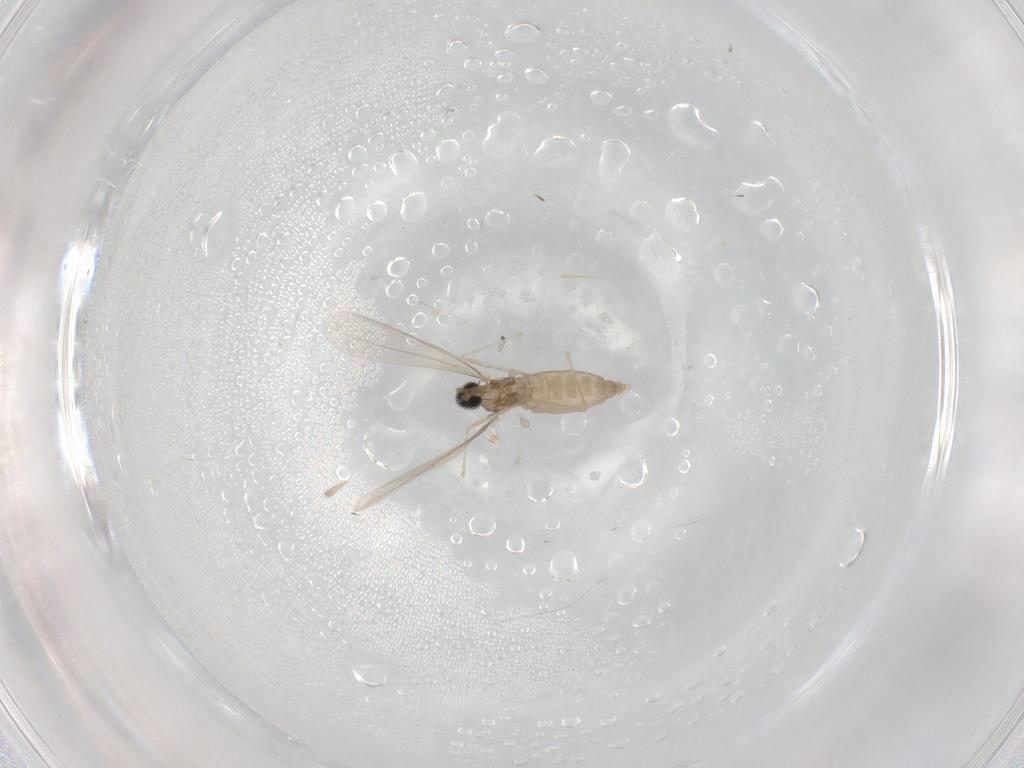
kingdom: Animalia
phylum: Arthropoda
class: Insecta
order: Diptera
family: Cecidomyiidae
